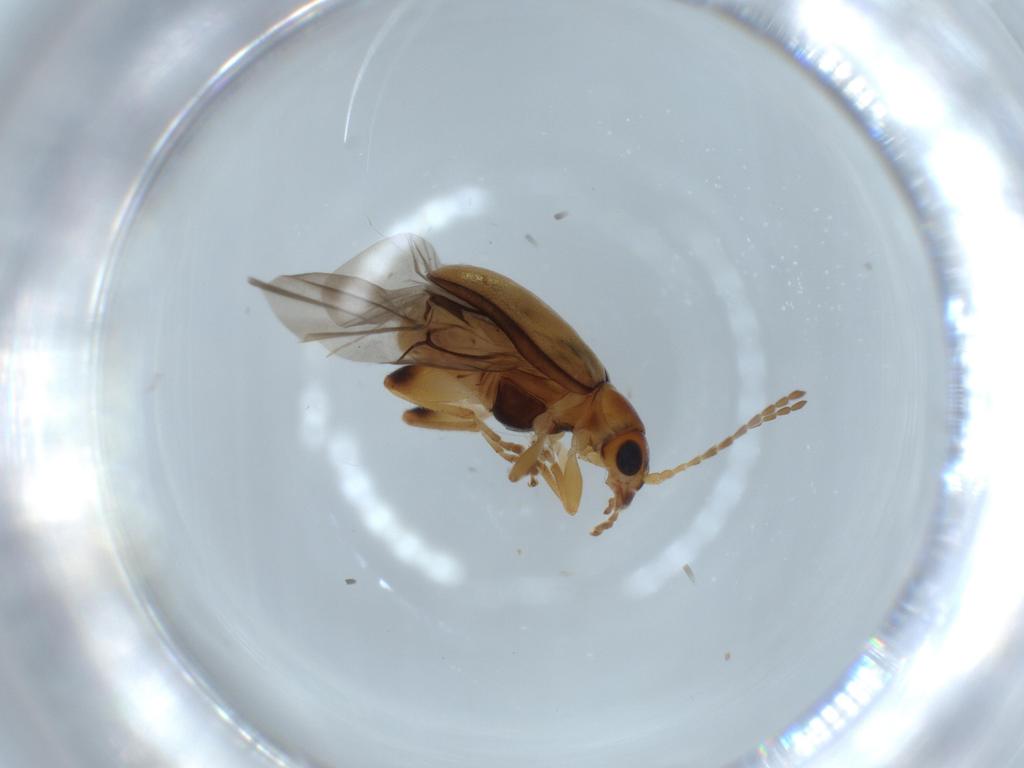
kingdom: Animalia
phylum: Arthropoda
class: Insecta
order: Coleoptera
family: Chrysomelidae
